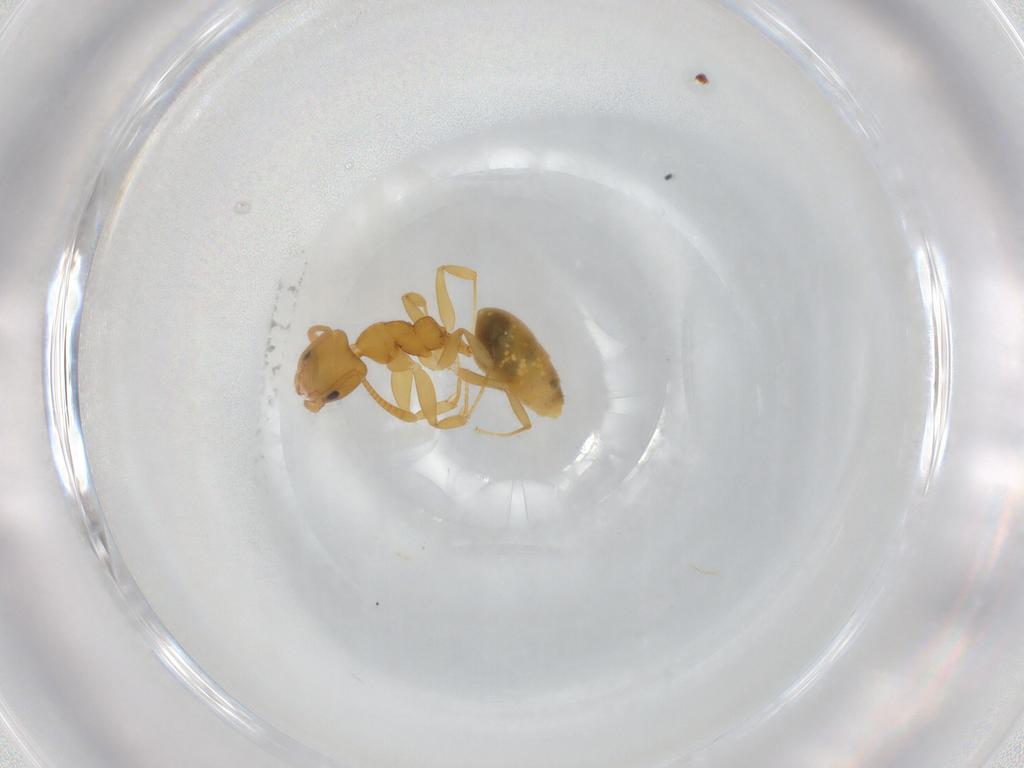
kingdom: Animalia
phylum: Arthropoda
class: Insecta
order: Hymenoptera
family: Formicidae
